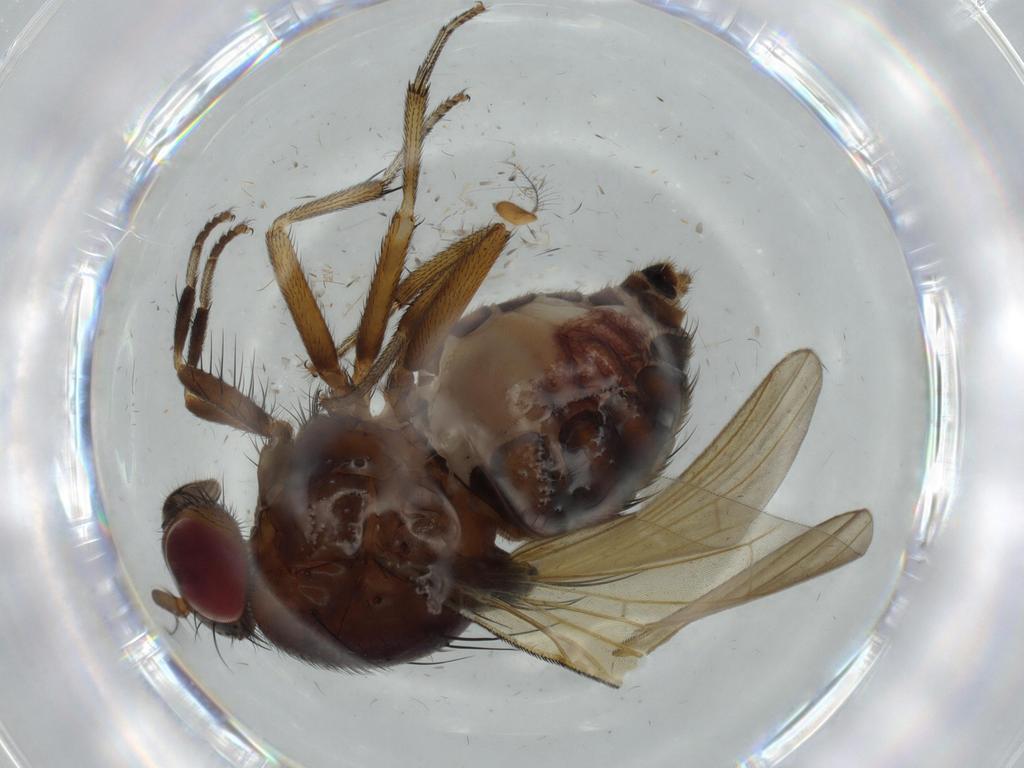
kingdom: Animalia
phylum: Arthropoda
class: Insecta
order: Diptera
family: Cecidomyiidae
